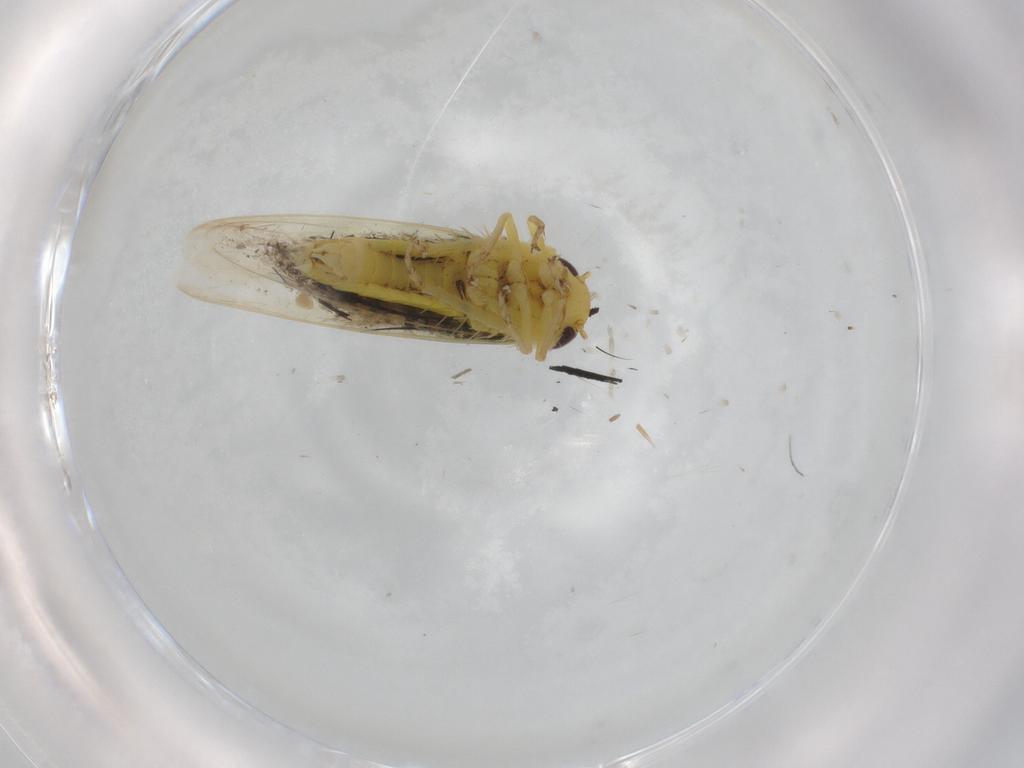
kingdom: Animalia
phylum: Arthropoda
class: Insecta
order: Hemiptera
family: Cicadellidae
